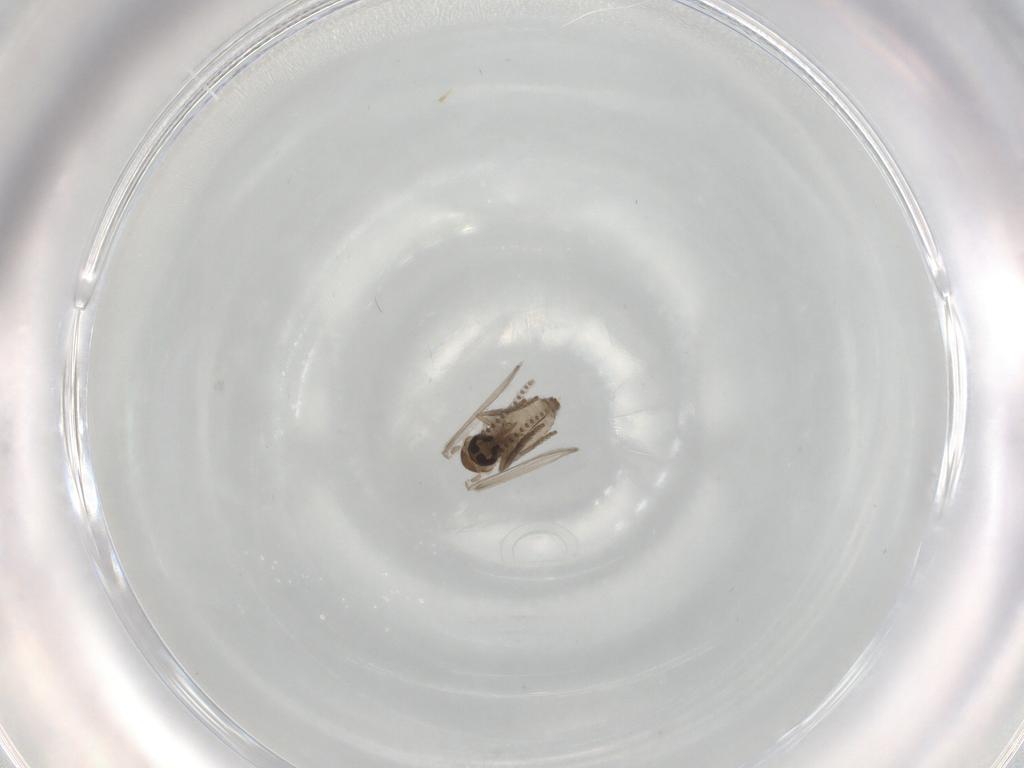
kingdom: Animalia
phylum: Arthropoda
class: Insecta
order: Diptera
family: Psychodidae
